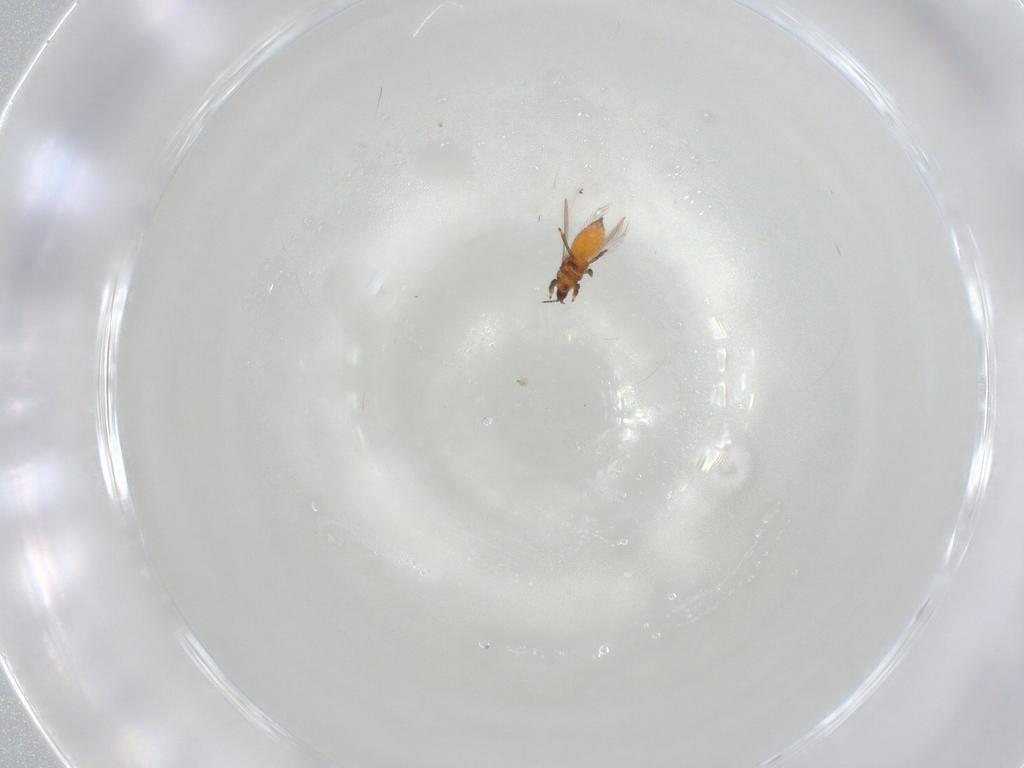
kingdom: Animalia
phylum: Arthropoda
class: Insecta
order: Thysanoptera
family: Thripidae
